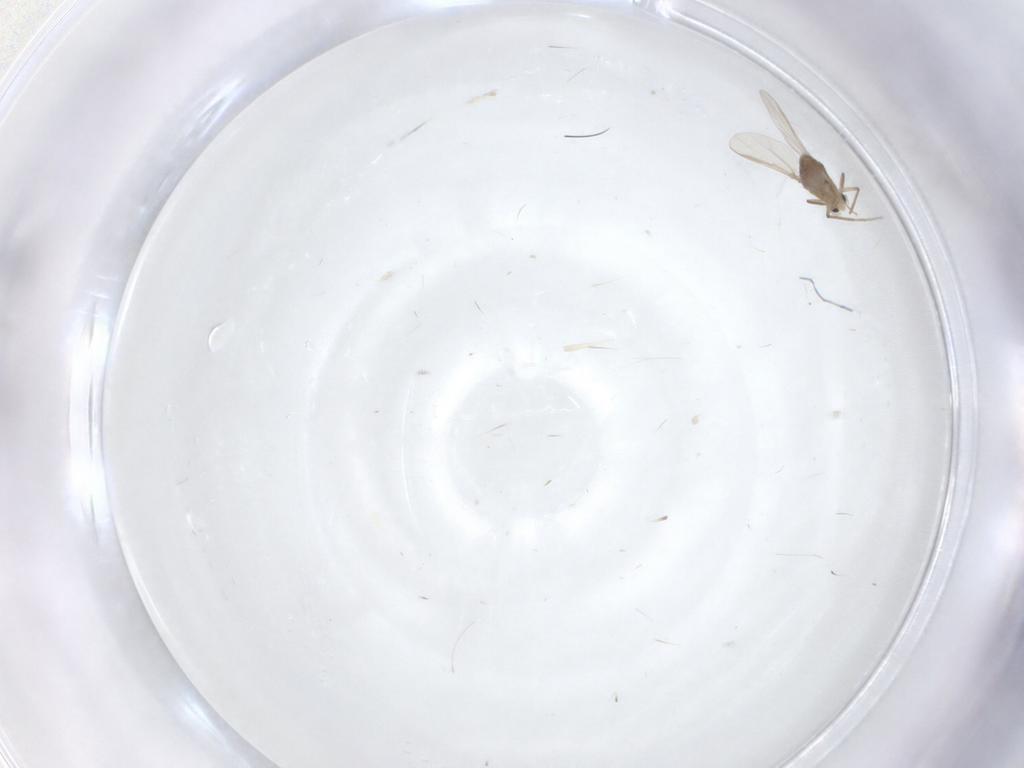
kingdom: Animalia
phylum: Arthropoda
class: Insecta
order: Diptera
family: Chironomidae
